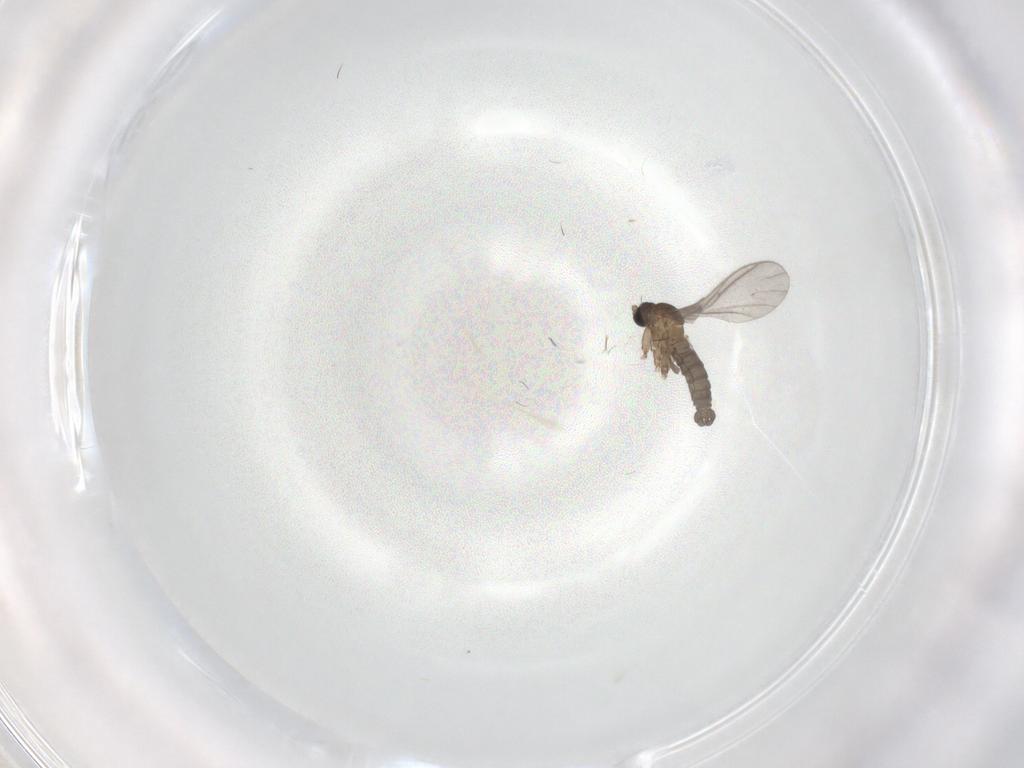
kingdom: Animalia
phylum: Arthropoda
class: Insecta
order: Diptera
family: Sciaridae
